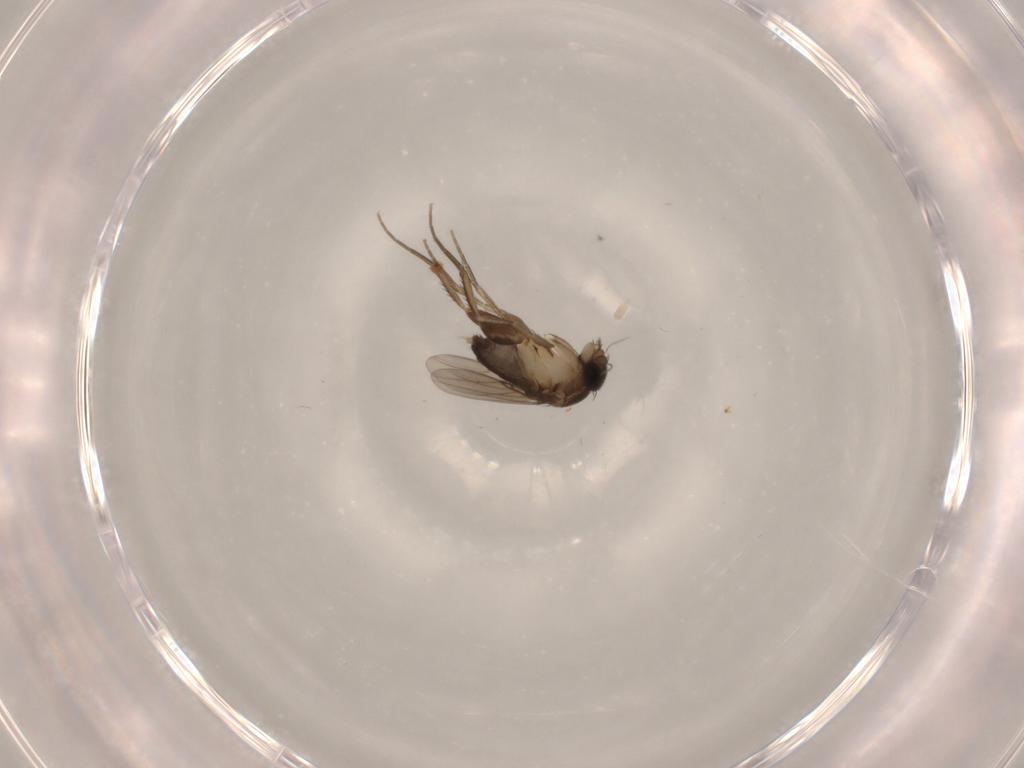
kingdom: Animalia
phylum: Arthropoda
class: Insecta
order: Diptera
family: Phoridae
